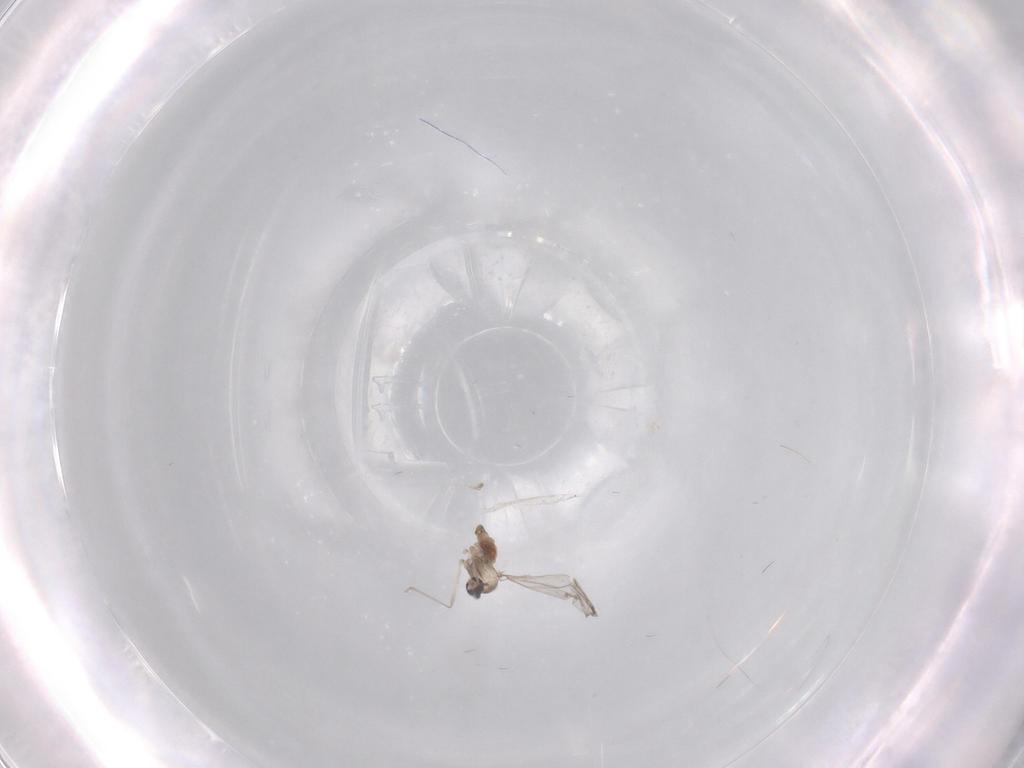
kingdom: Animalia
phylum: Arthropoda
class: Insecta
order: Diptera
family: Cecidomyiidae
